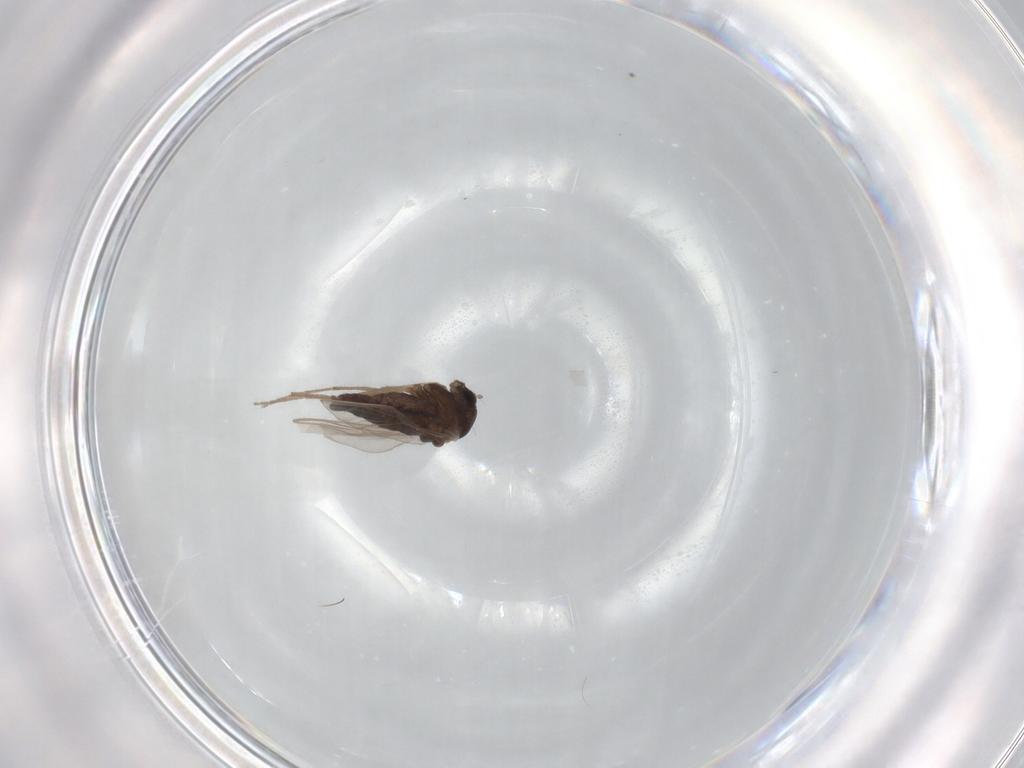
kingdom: Animalia
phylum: Arthropoda
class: Insecta
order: Diptera
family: Chironomidae
